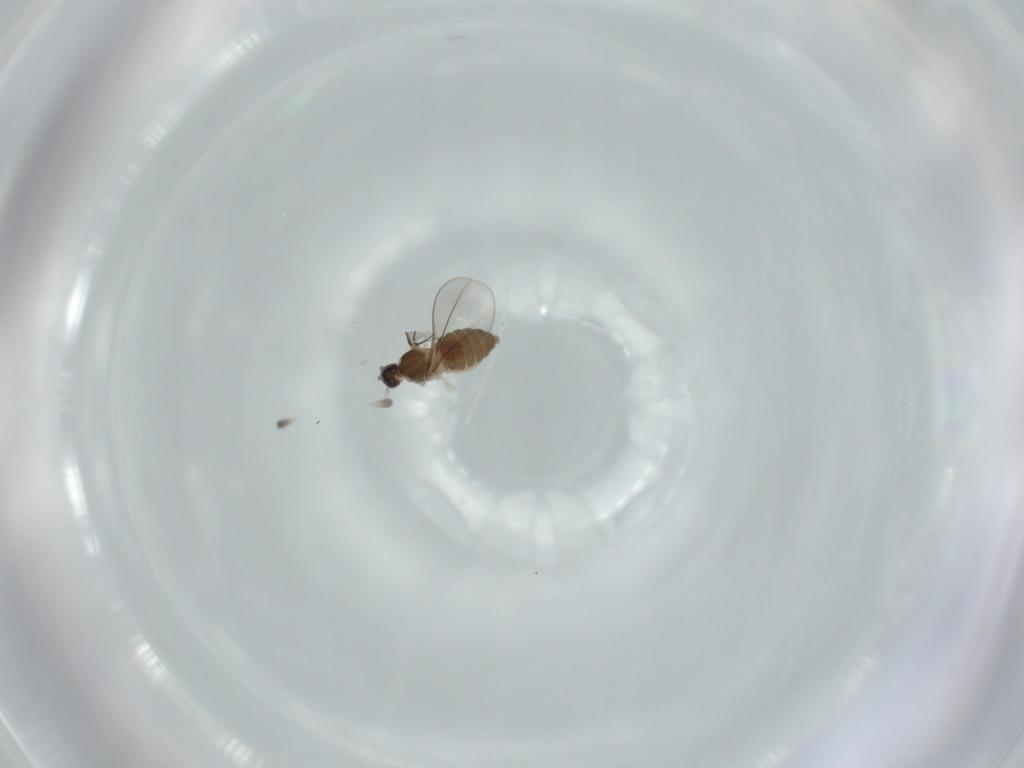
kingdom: Animalia
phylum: Arthropoda
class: Insecta
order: Diptera
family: Cecidomyiidae
